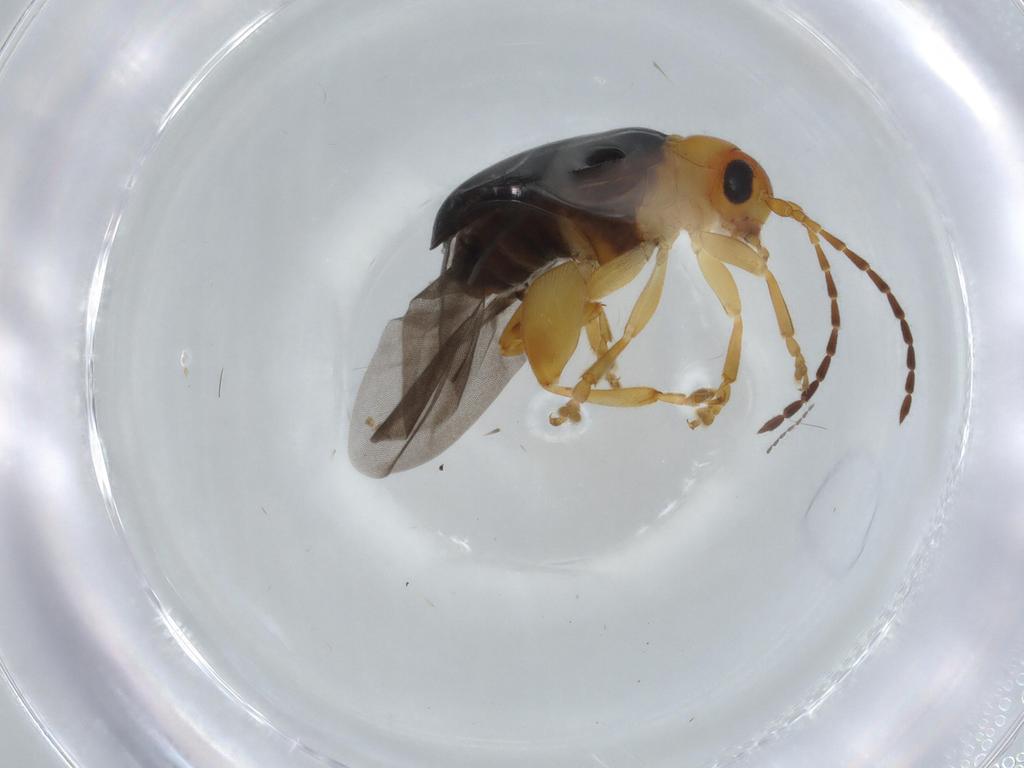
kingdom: Animalia
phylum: Arthropoda
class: Insecta
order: Coleoptera
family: Chrysomelidae
